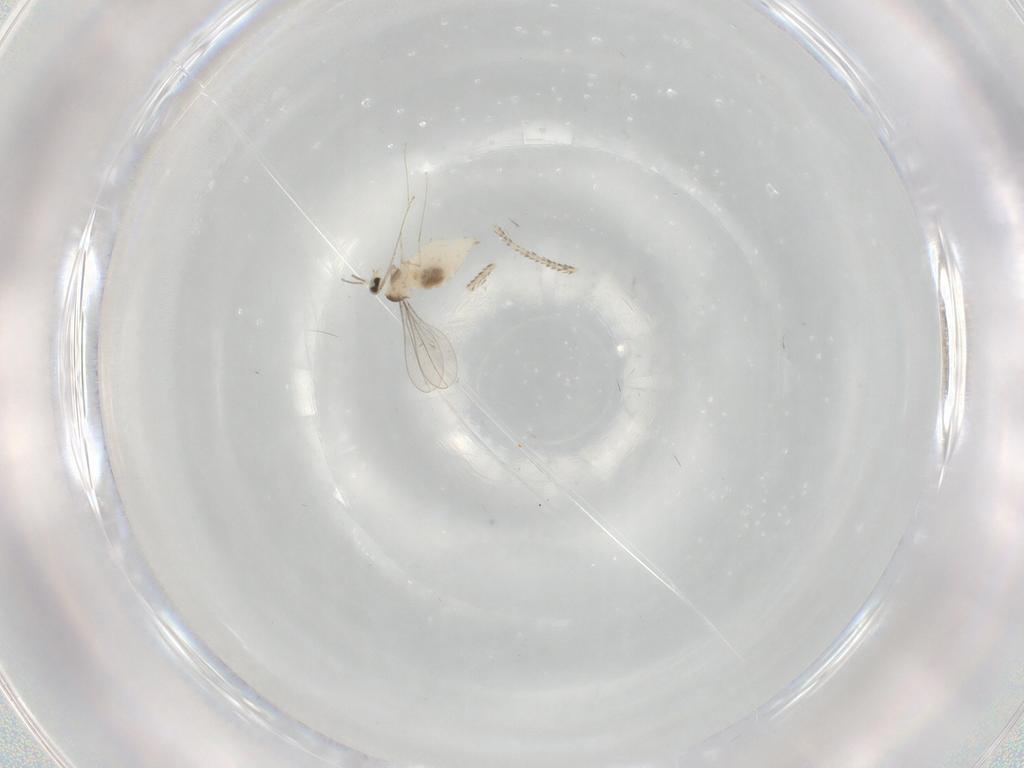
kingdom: Animalia
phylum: Arthropoda
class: Insecta
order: Diptera
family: Cecidomyiidae
